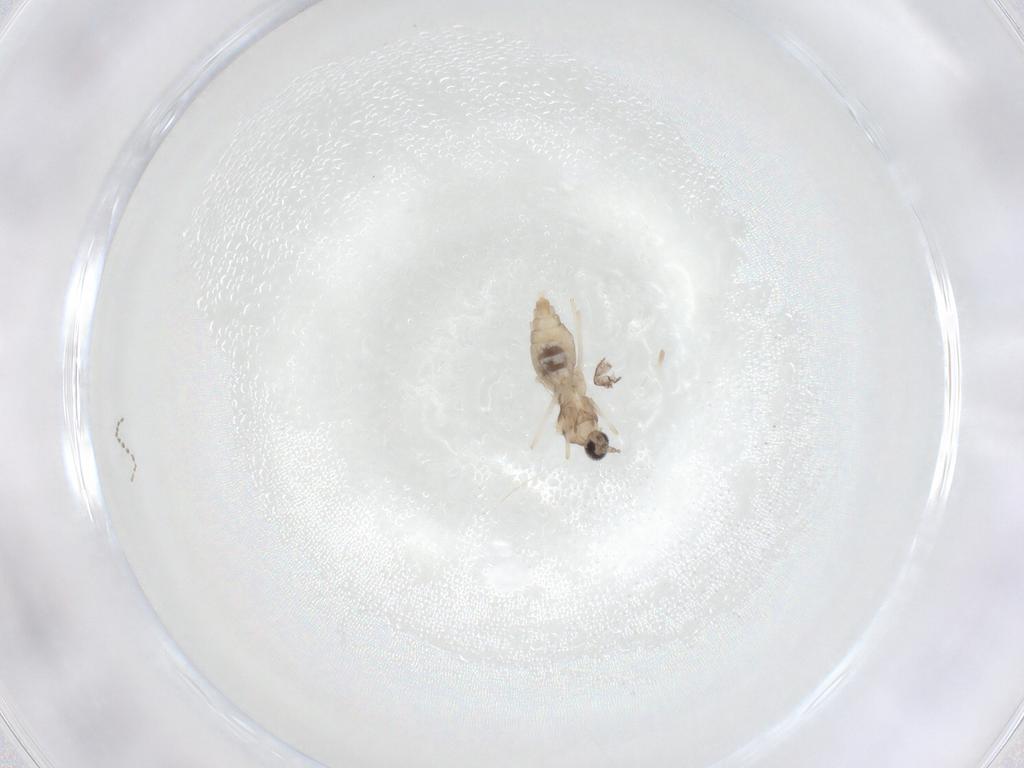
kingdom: Animalia
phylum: Arthropoda
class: Insecta
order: Diptera
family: Cecidomyiidae
